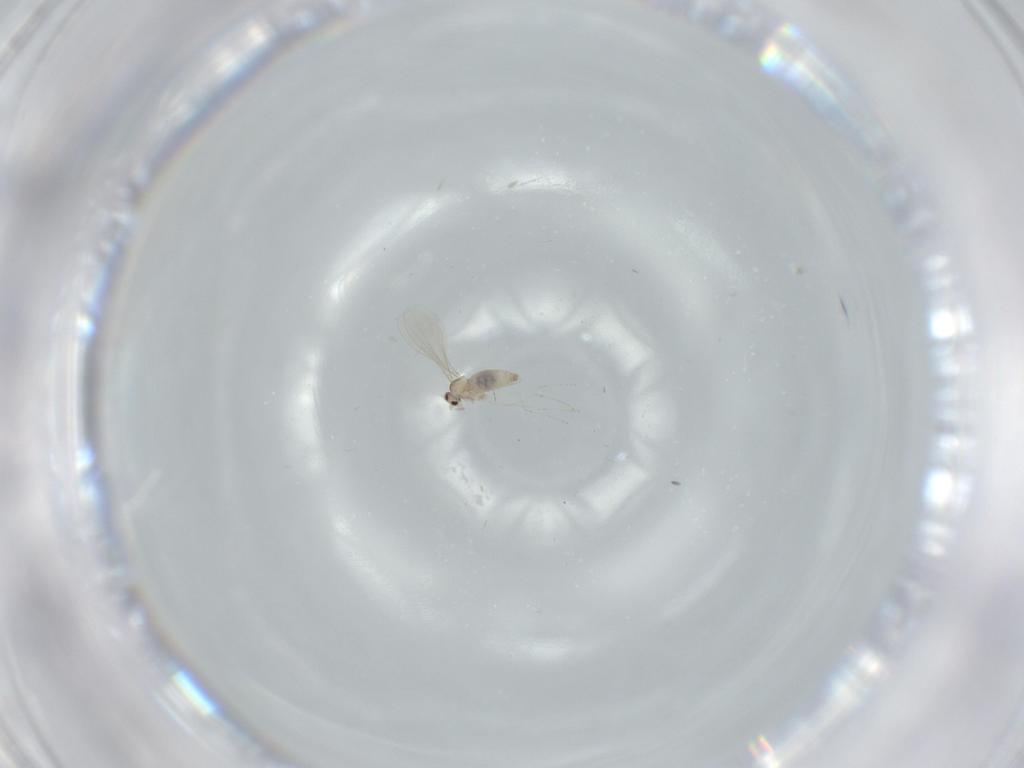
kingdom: Animalia
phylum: Arthropoda
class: Insecta
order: Diptera
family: Cecidomyiidae
